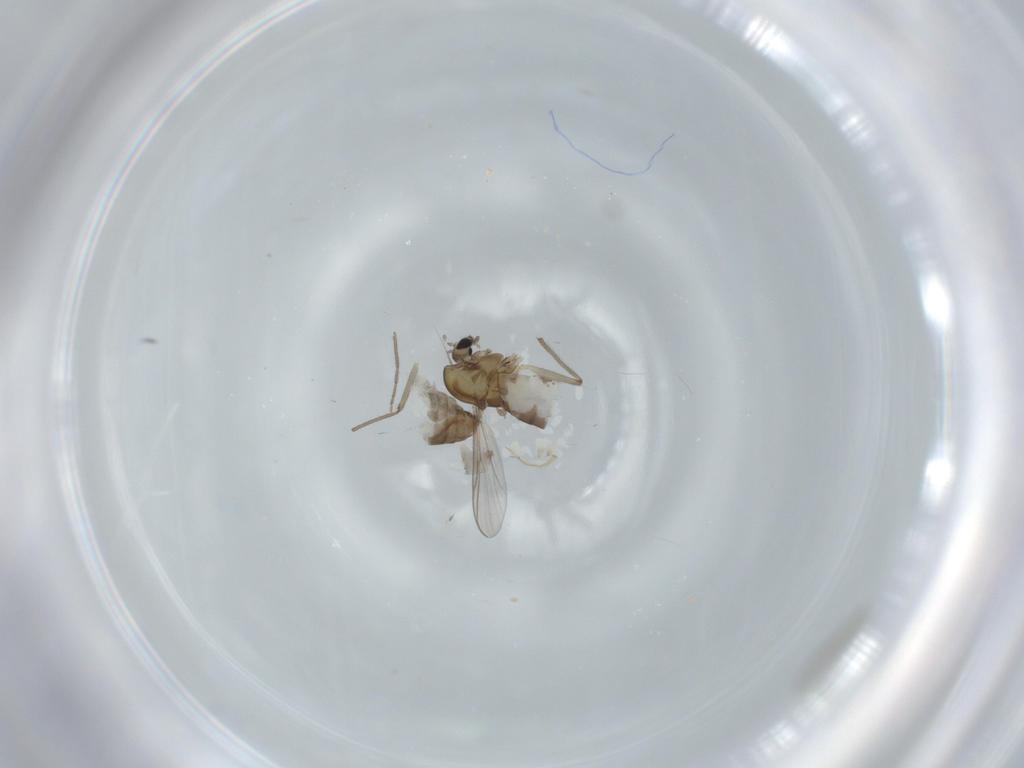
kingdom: Animalia
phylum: Arthropoda
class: Insecta
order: Diptera
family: Chironomidae
